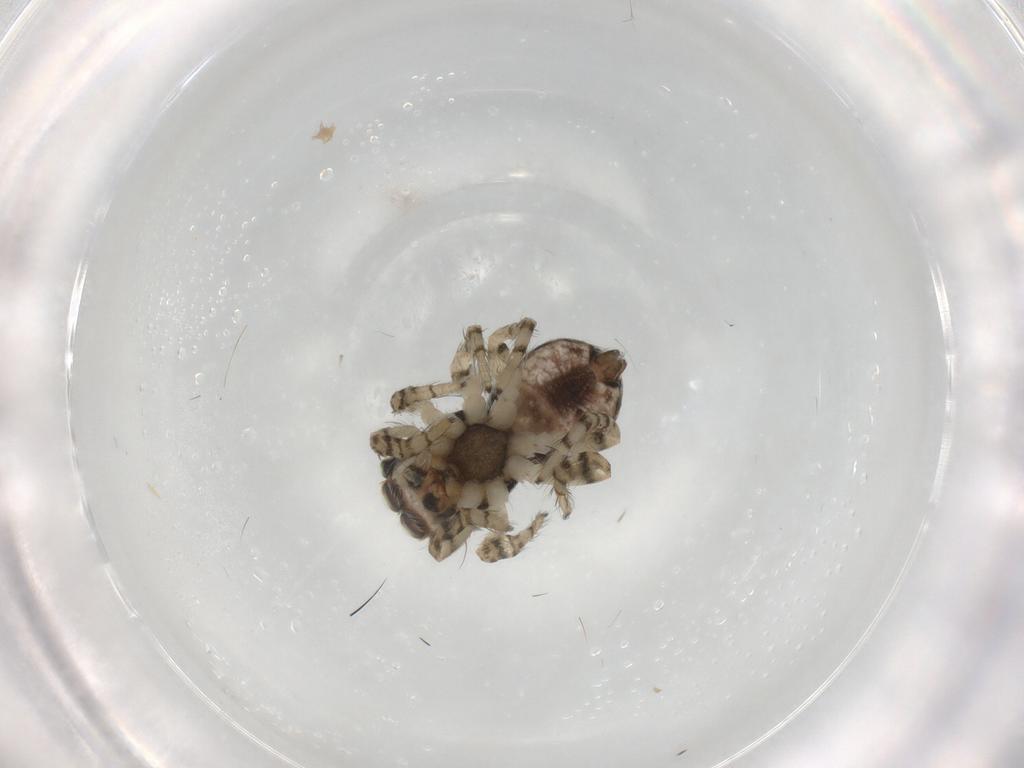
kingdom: Animalia
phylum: Arthropoda
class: Arachnida
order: Araneae
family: Salticidae
